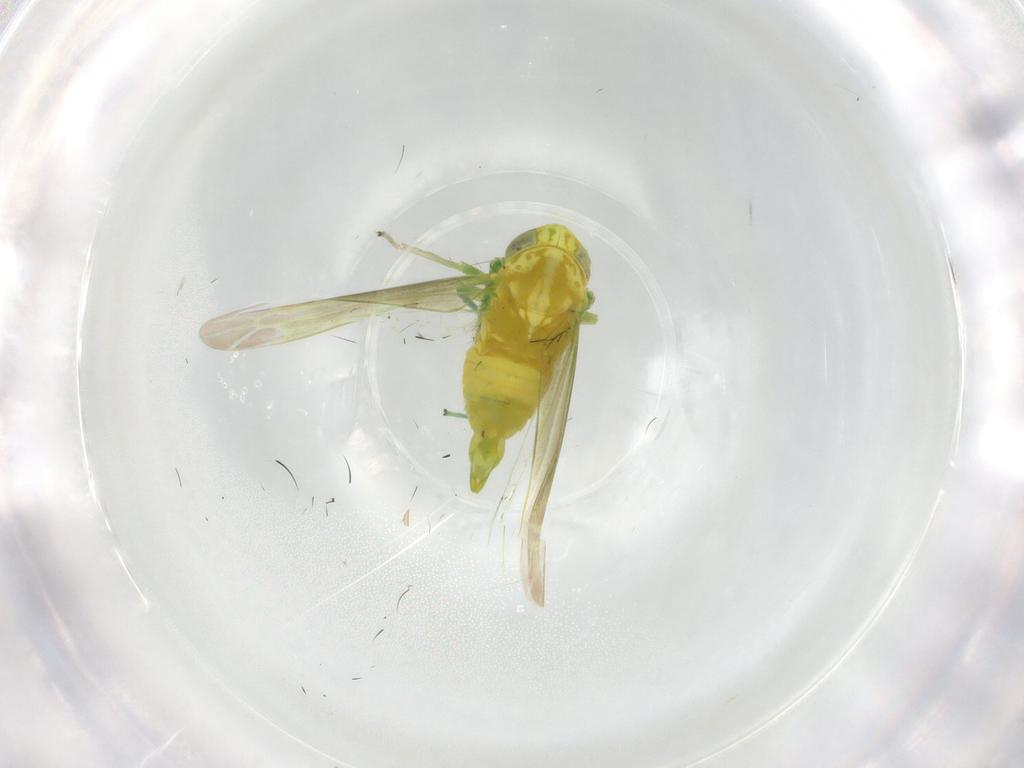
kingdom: Animalia
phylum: Arthropoda
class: Insecta
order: Hemiptera
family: Cicadellidae
